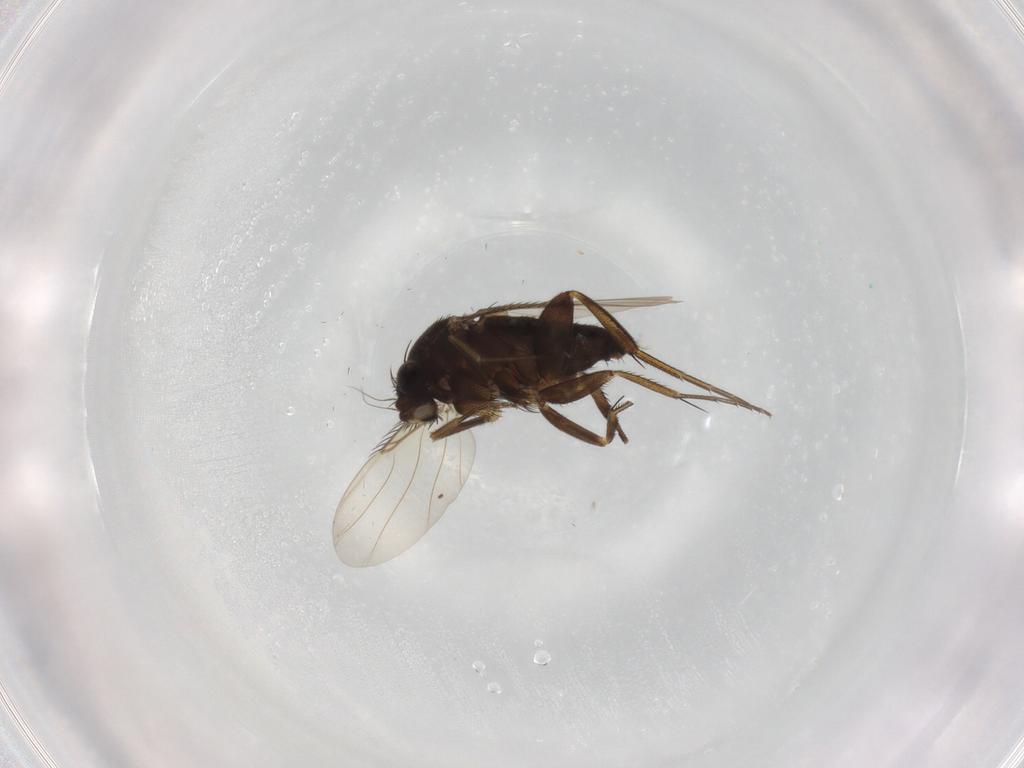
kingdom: Animalia
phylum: Arthropoda
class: Insecta
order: Diptera
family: Phoridae
